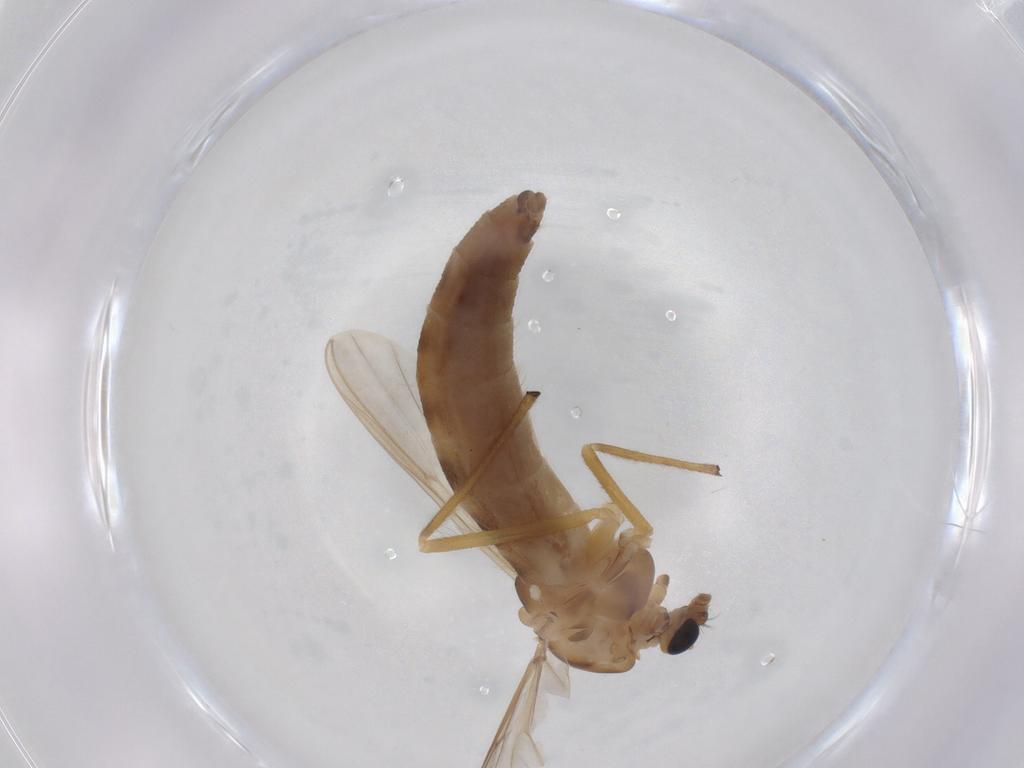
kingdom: Animalia
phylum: Arthropoda
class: Insecta
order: Diptera
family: Chironomidae
